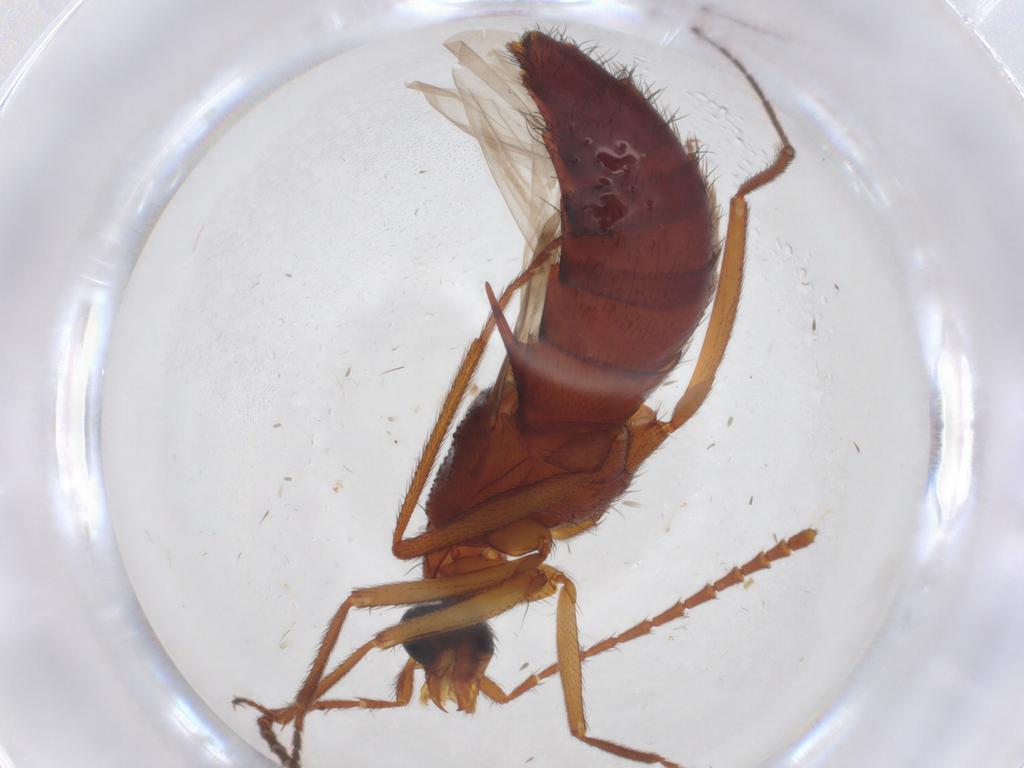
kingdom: Animalia
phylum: Arthropoda
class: Insecta
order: Coleoptera
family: Staphylinidae
